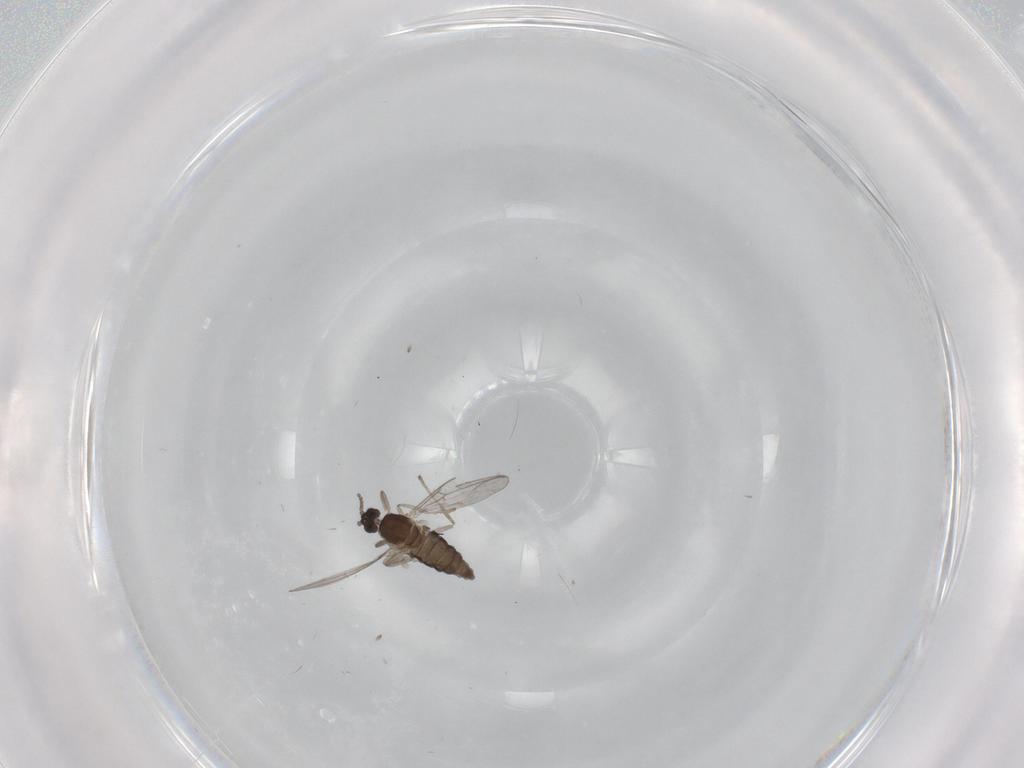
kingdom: Animalia
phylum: Arthropoda
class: Insecta
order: Diptera
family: Cecidomyiidae
